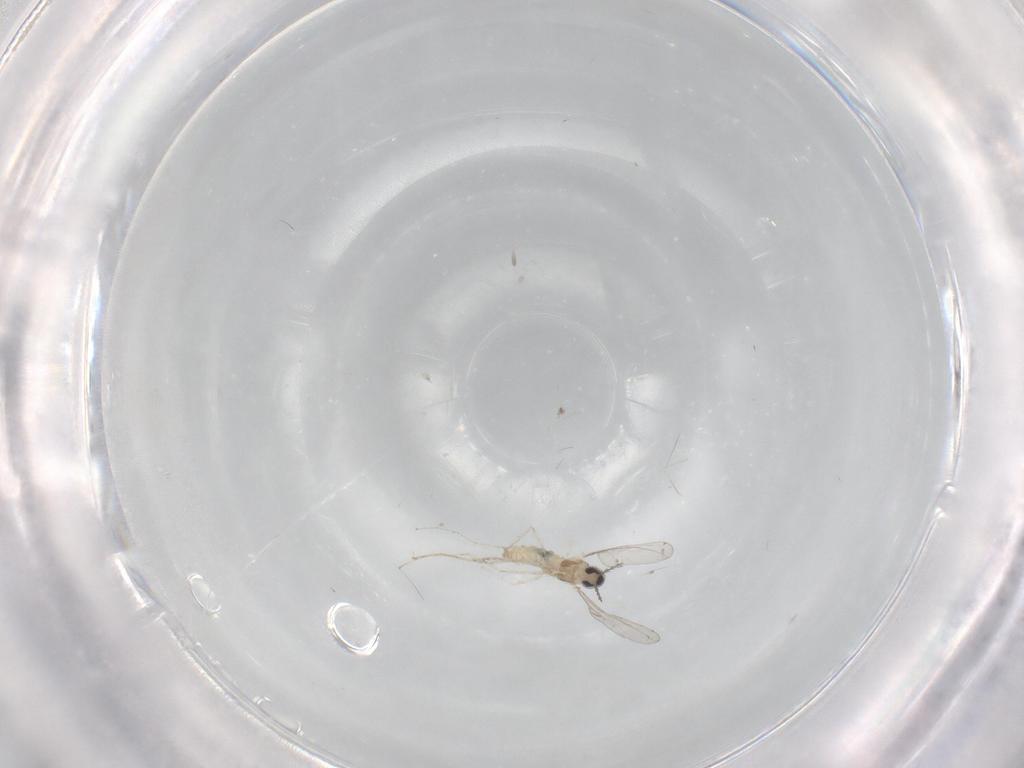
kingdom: Animalia
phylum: Arthropoda
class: Insecta
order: Diptera
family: Cecidomyiidae
